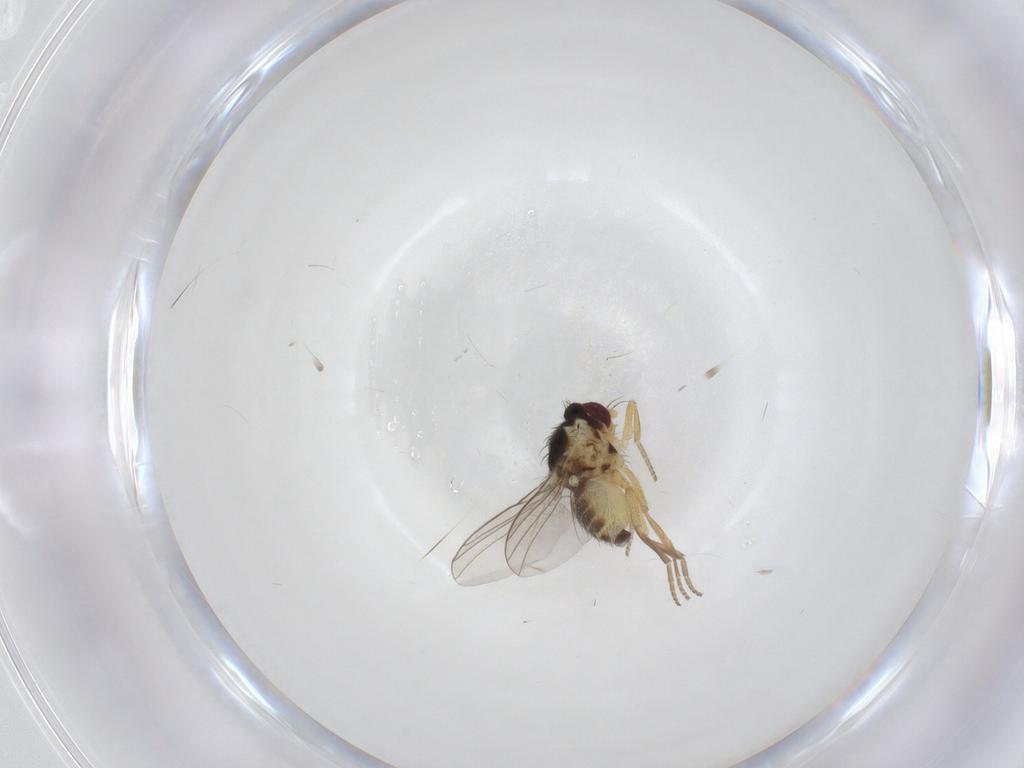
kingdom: Animalia
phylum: Arthropoda
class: Insecta
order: Diptera
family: Agromyzidae
